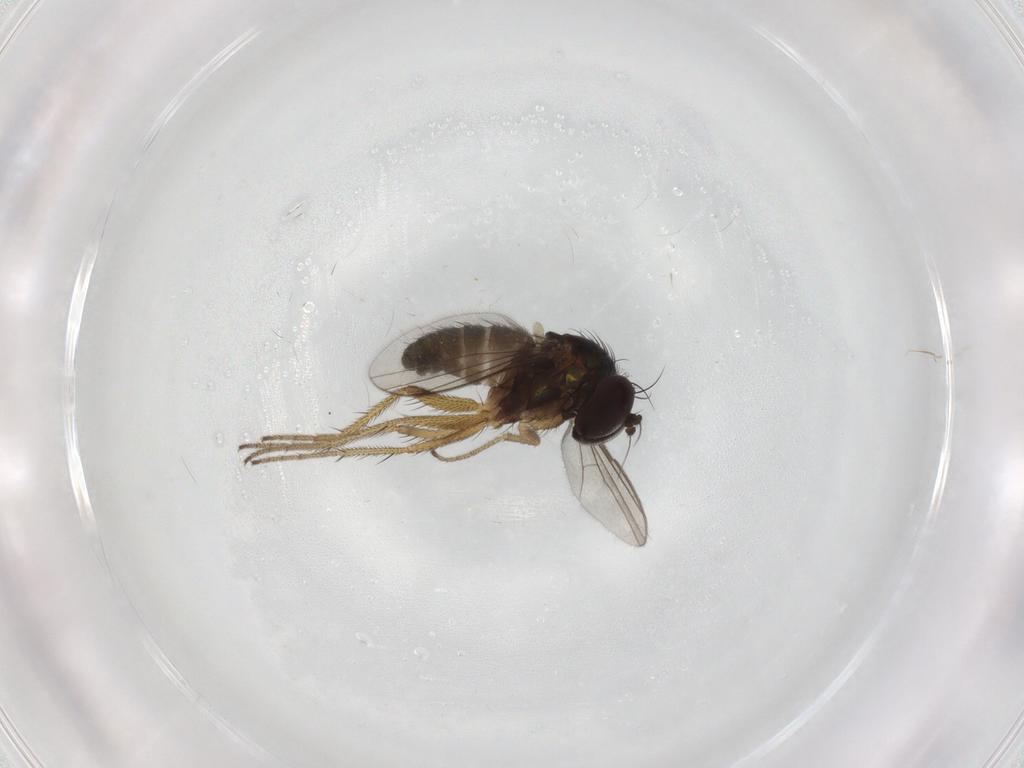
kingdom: Animalia
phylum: Arthropoda
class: Insecta
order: Diptera
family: Dolichopodidae
